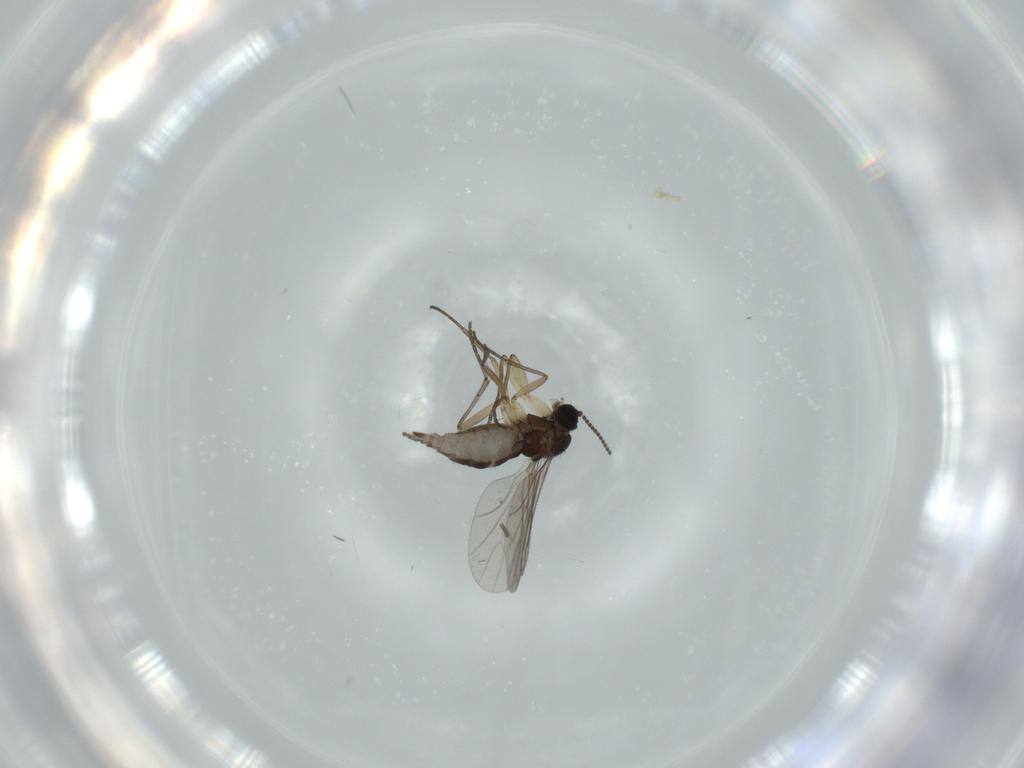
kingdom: Animalia
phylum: Arthropoda
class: Insecta
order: Diptera
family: Sciaridae
